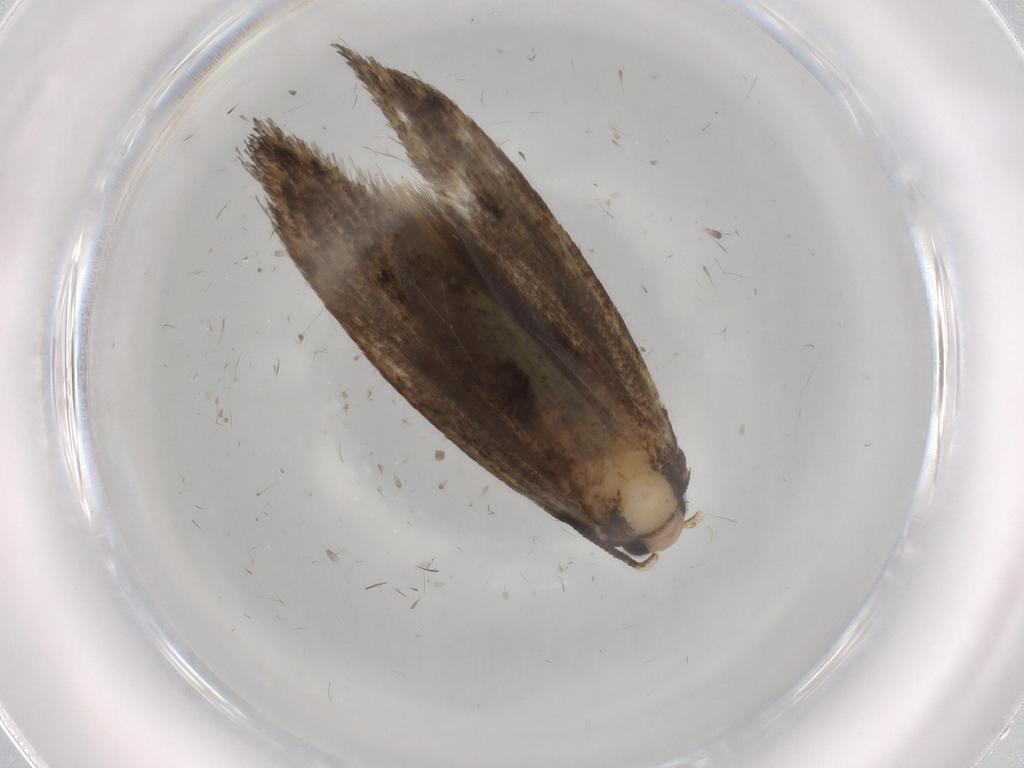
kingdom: Animalia
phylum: Arthropoda
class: Insecta
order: Lepidoptera
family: Tineidae
